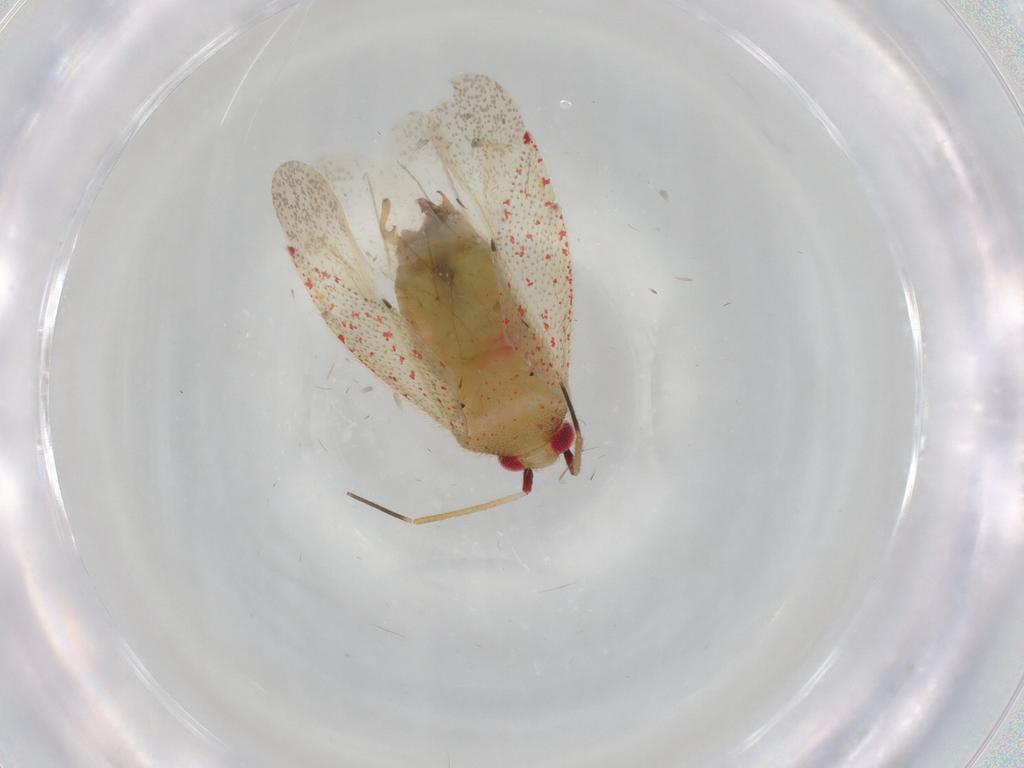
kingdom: Animalia
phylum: Arthropoda
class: Insecta
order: Hemiptera
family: Miridae
